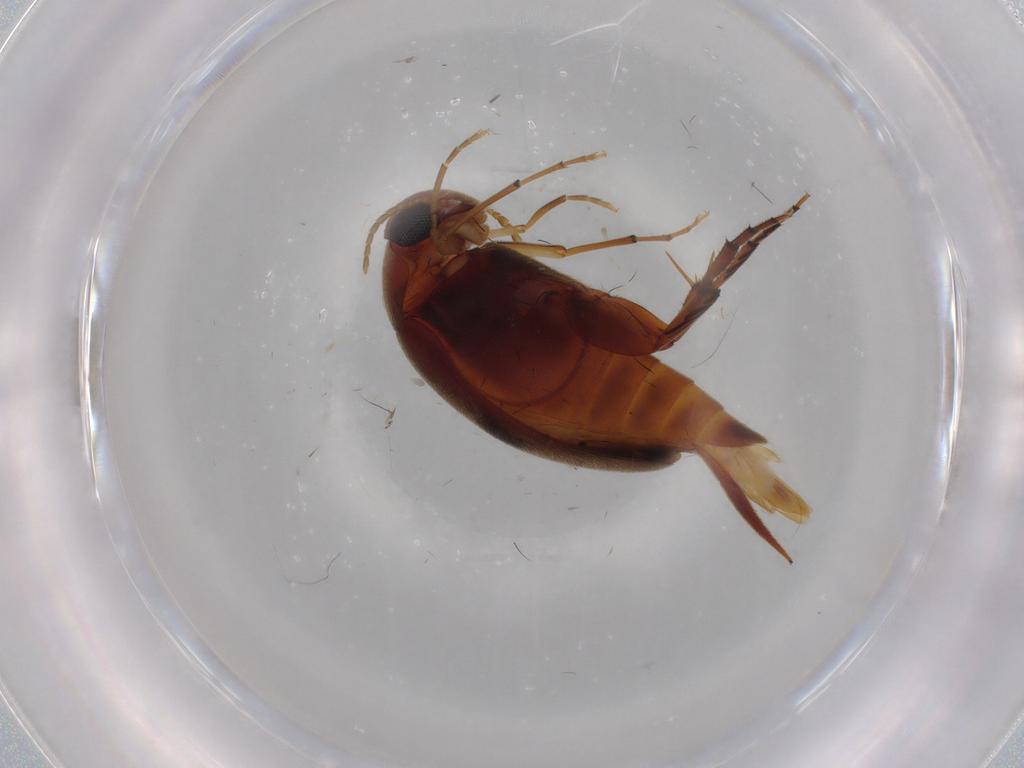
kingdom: Animalia
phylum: Arthropoda
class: Insecta
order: Coleoptera
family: Mordellidae
